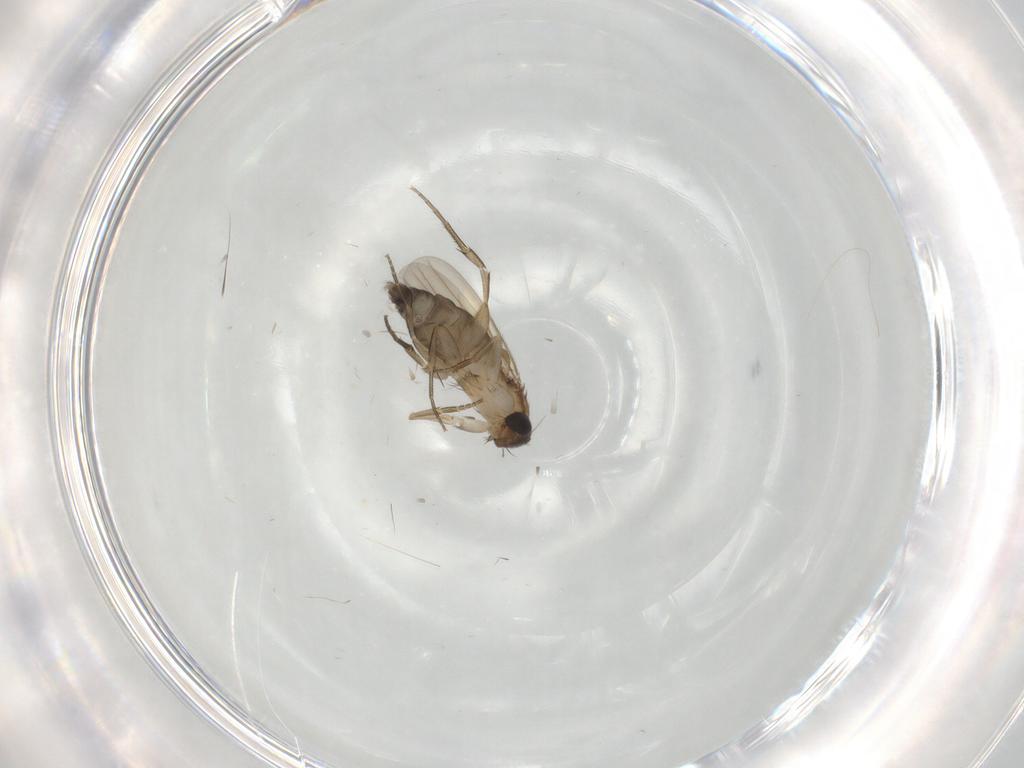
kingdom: Animalia
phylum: Arthropoda
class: Insecta
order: Diptera
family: Phoridae
